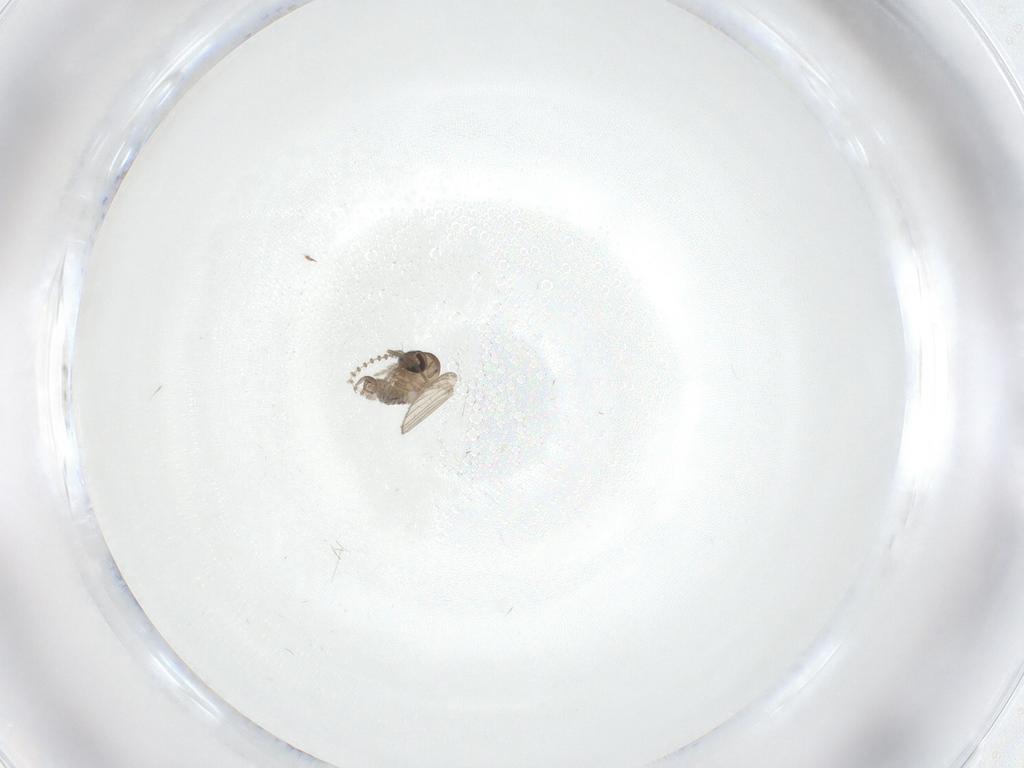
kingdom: Animalia
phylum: Arthropoda
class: Insecta
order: Diptera
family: Psychodidae
